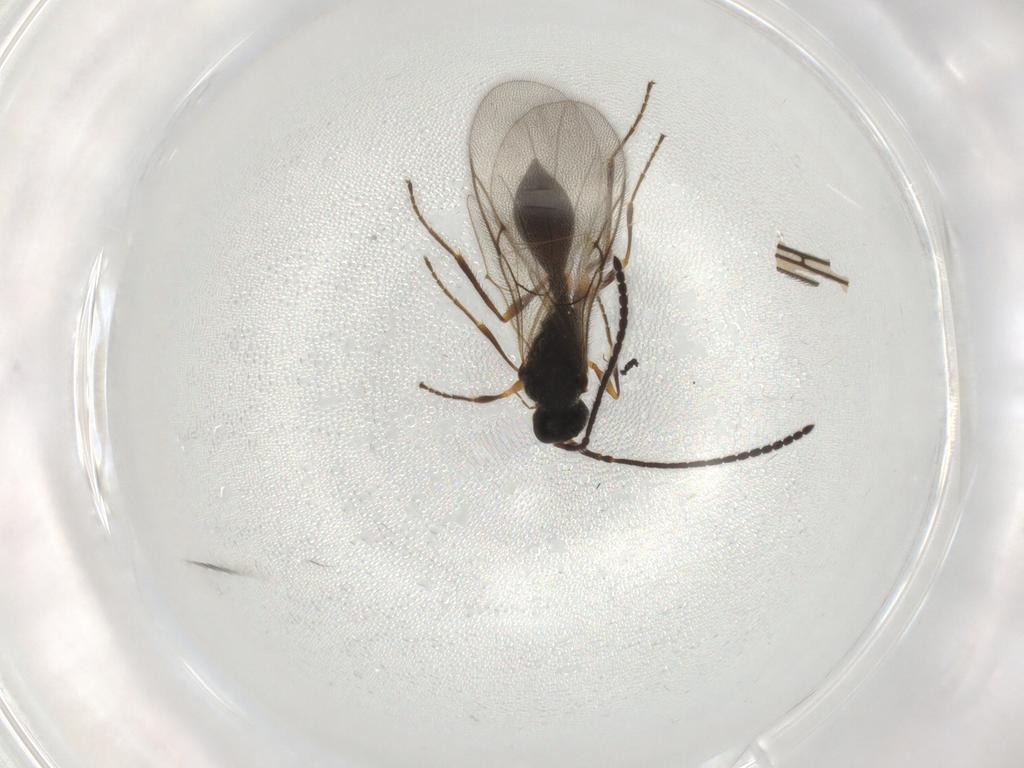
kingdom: Animalia
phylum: Arthropoda
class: Insecta
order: Hymenoptera
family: Diapriidae
